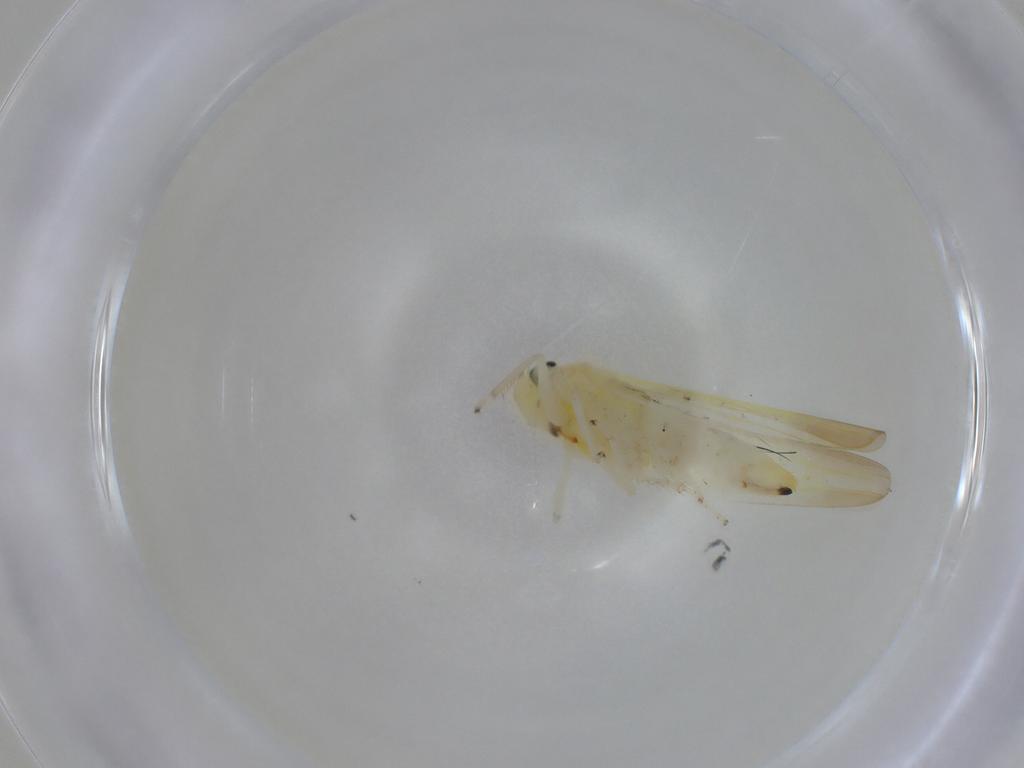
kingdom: Animalia
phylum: Arthropoda
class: Insecta
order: Hemiptera
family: Cicadellidae
